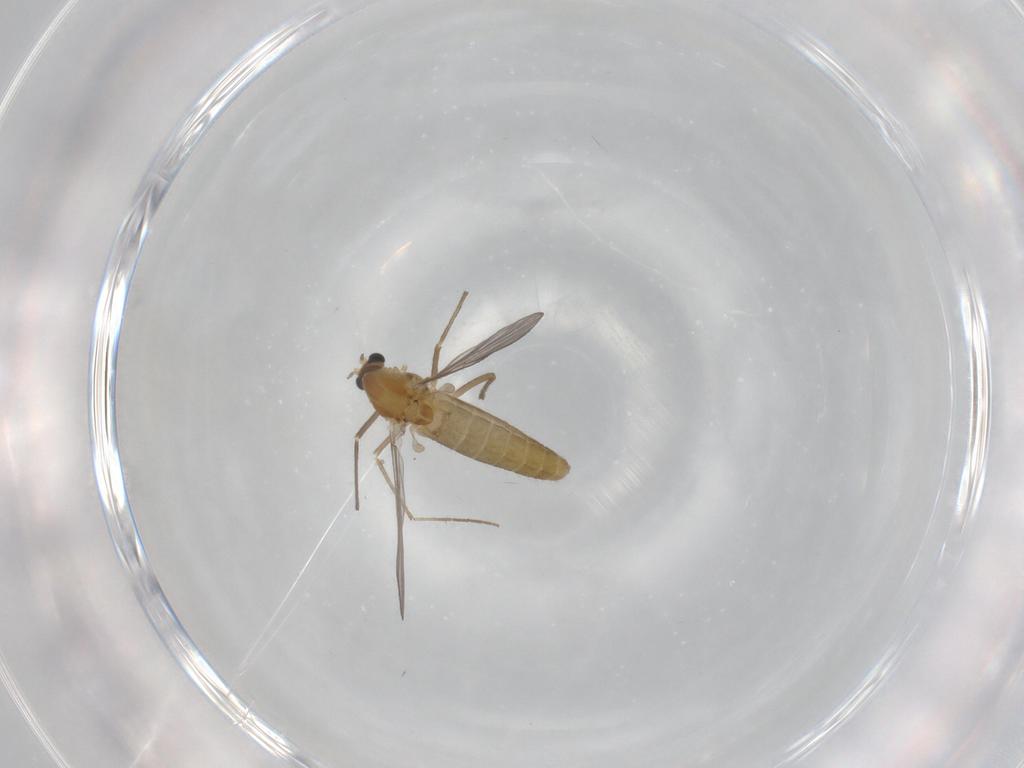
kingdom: Animalia
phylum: Arthropoda
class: Insecta
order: Diptera
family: Chironomidae
